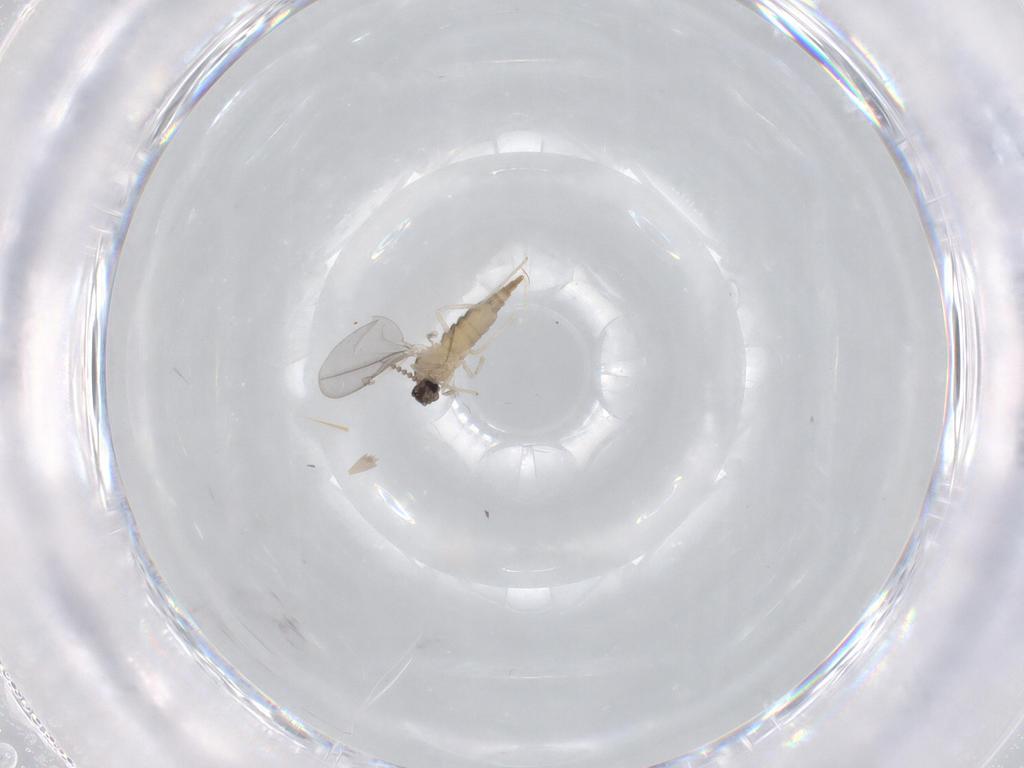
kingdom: Animalia
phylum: Arthropoda
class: Insecta
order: Diptera
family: Cecidomyiidae
